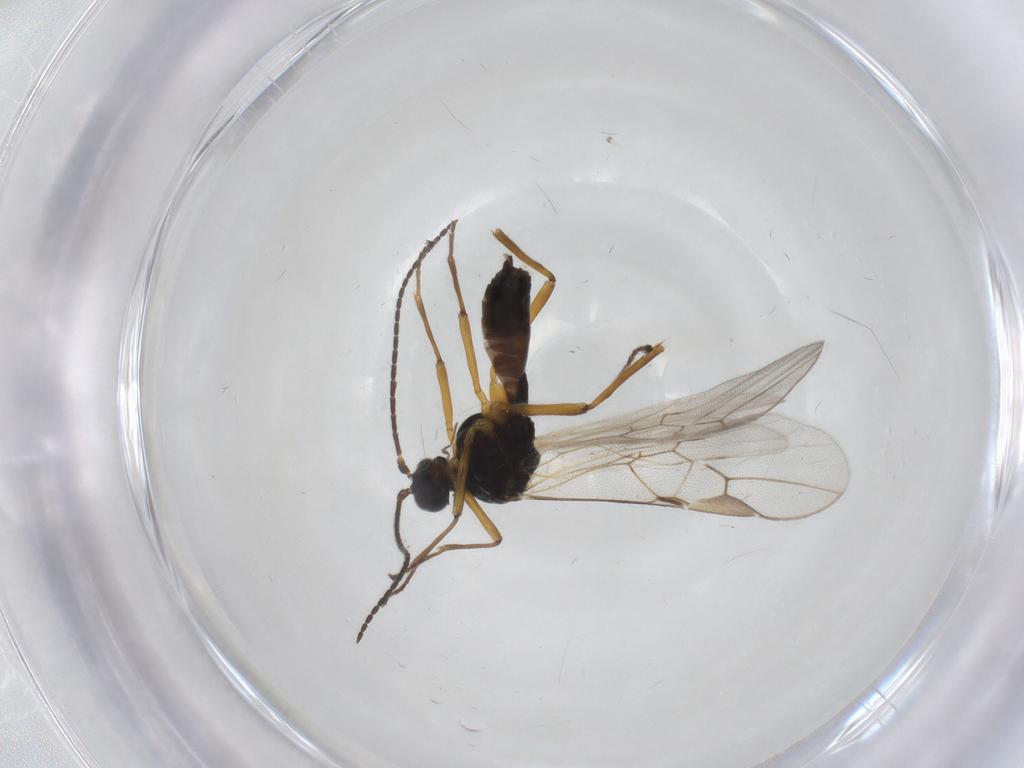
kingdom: Animalia
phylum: Arthropoda
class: Insecta
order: Hymenoptera
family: Braconidae
